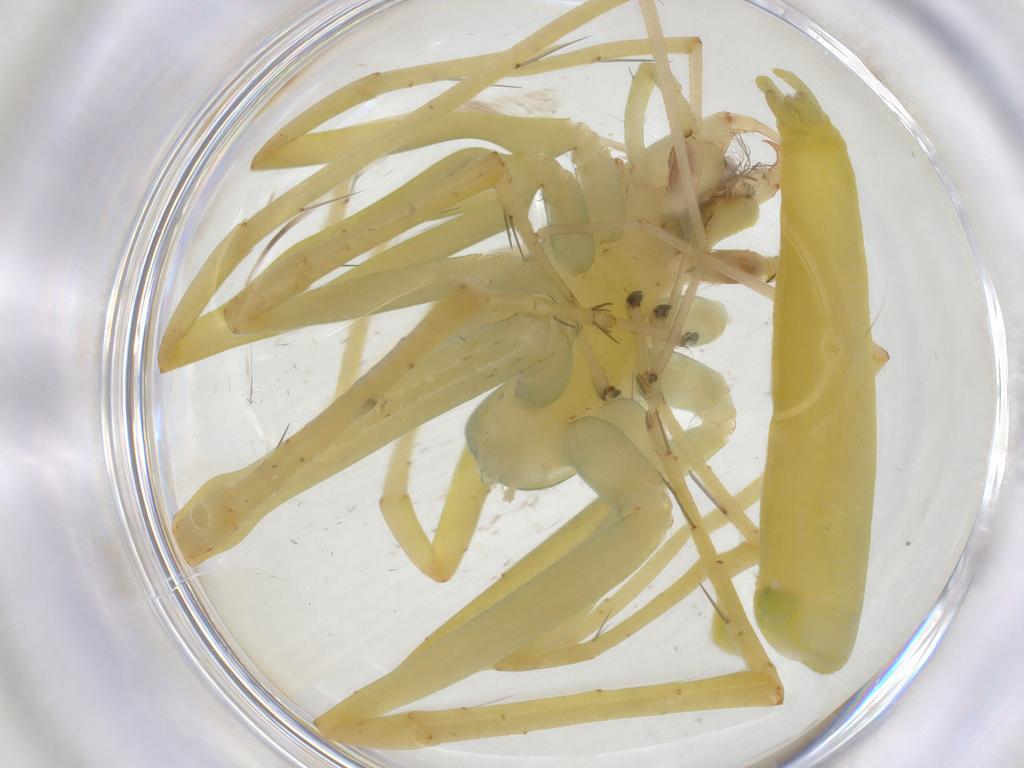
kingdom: Animalia
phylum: Arthropoda
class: Arachnida
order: Araneae
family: Clubionidae
